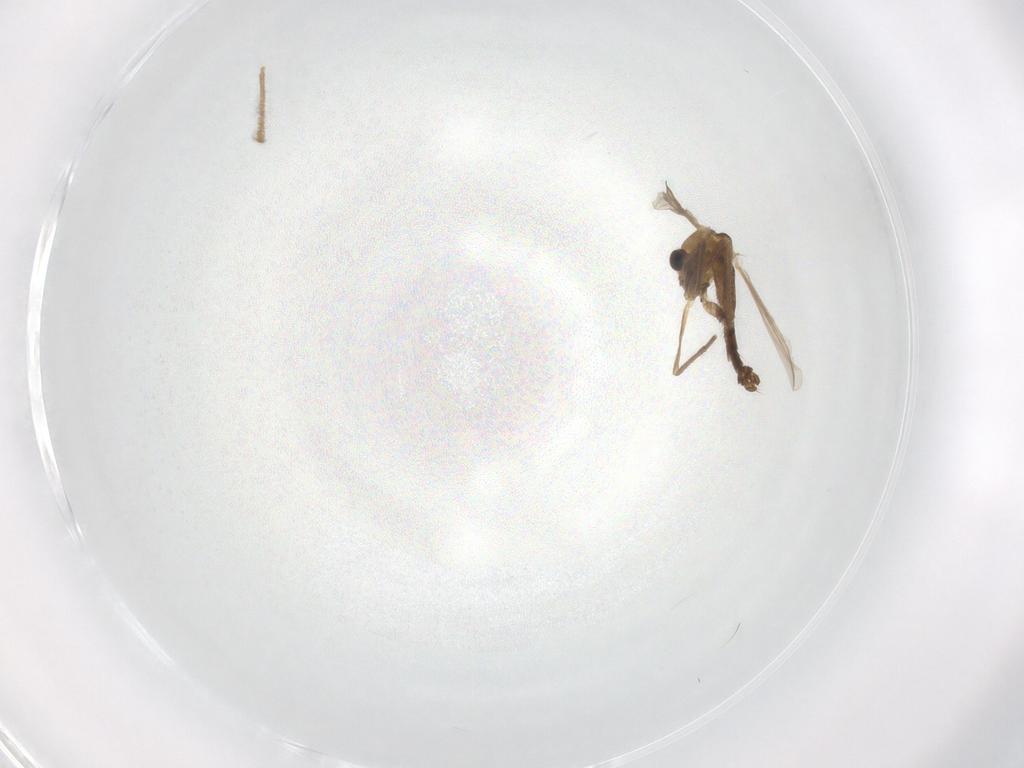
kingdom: Animalia
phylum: Arthropoda
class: Insecta
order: Diptera
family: Chironomidae
